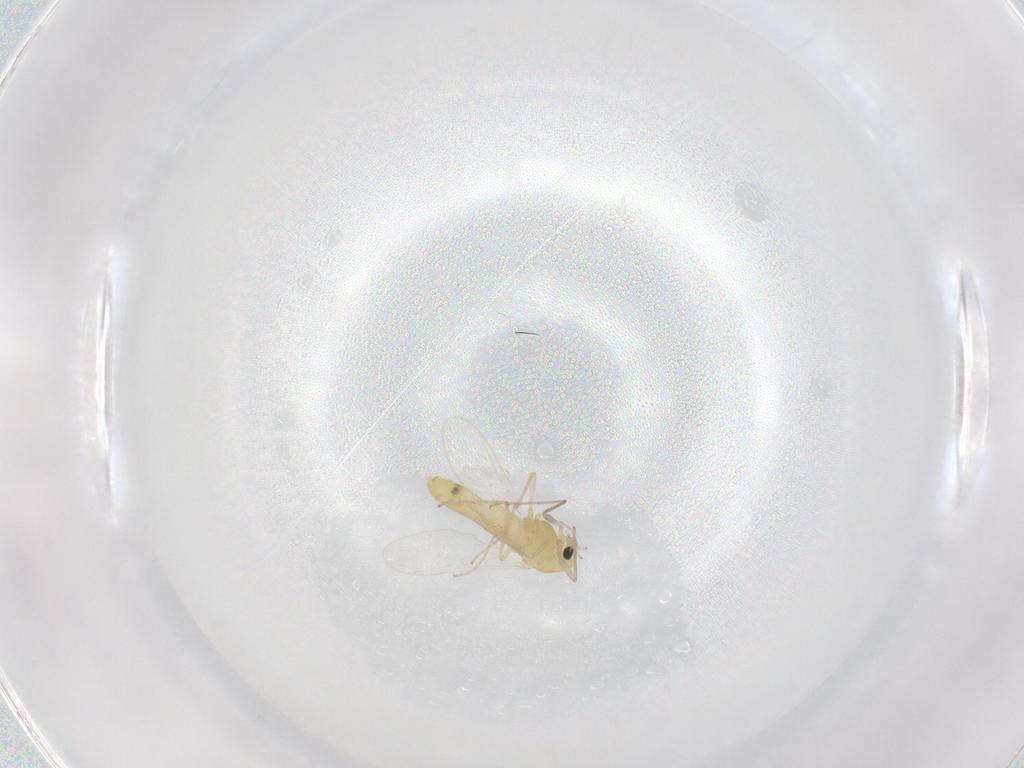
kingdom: Animalia
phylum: Arthropoda
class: Insecta
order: Diptera
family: Chironomidae
